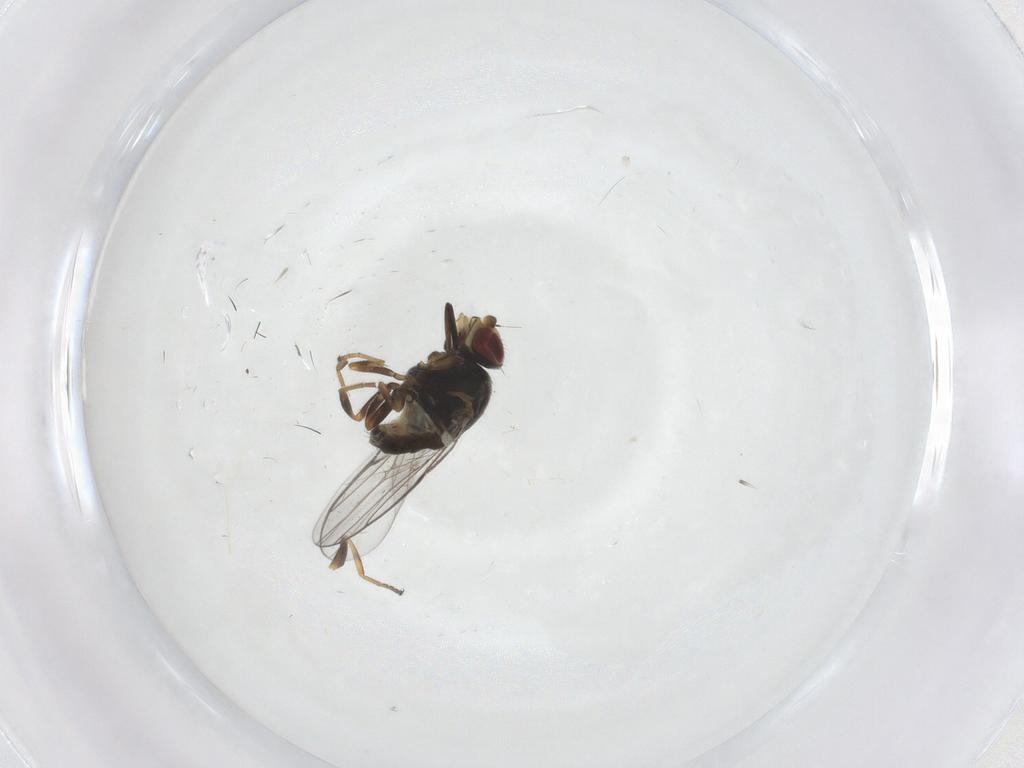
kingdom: Animalia
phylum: Arthropoda
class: Insecta
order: Diptera
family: Chloropidae
